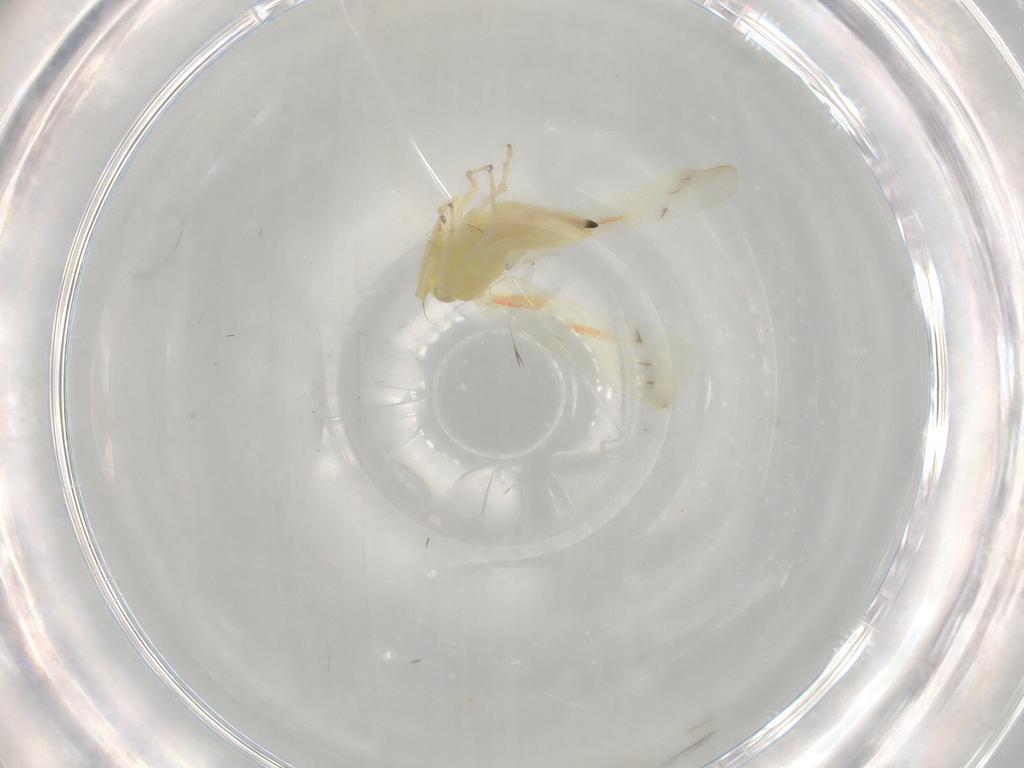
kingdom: Animalia
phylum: Arthropoda
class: Insecta
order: Hemiptera
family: Cicadellidae
